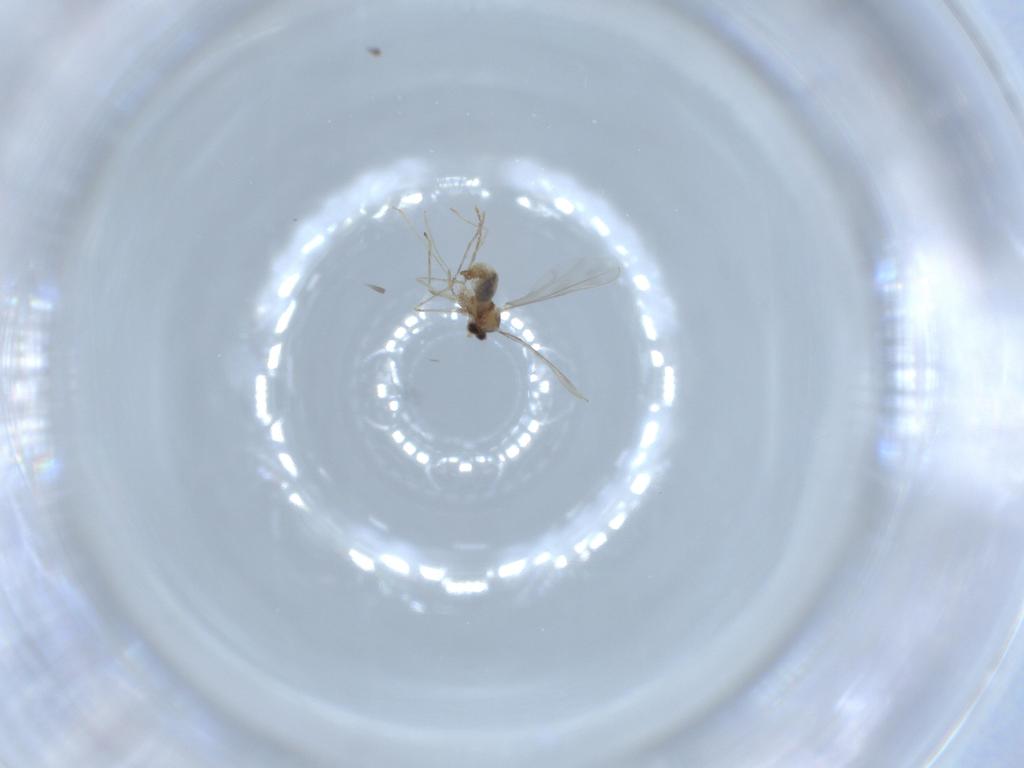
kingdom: Animalia
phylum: Arthropoda
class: Insecta
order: Diptera
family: Cecidomyiidae
